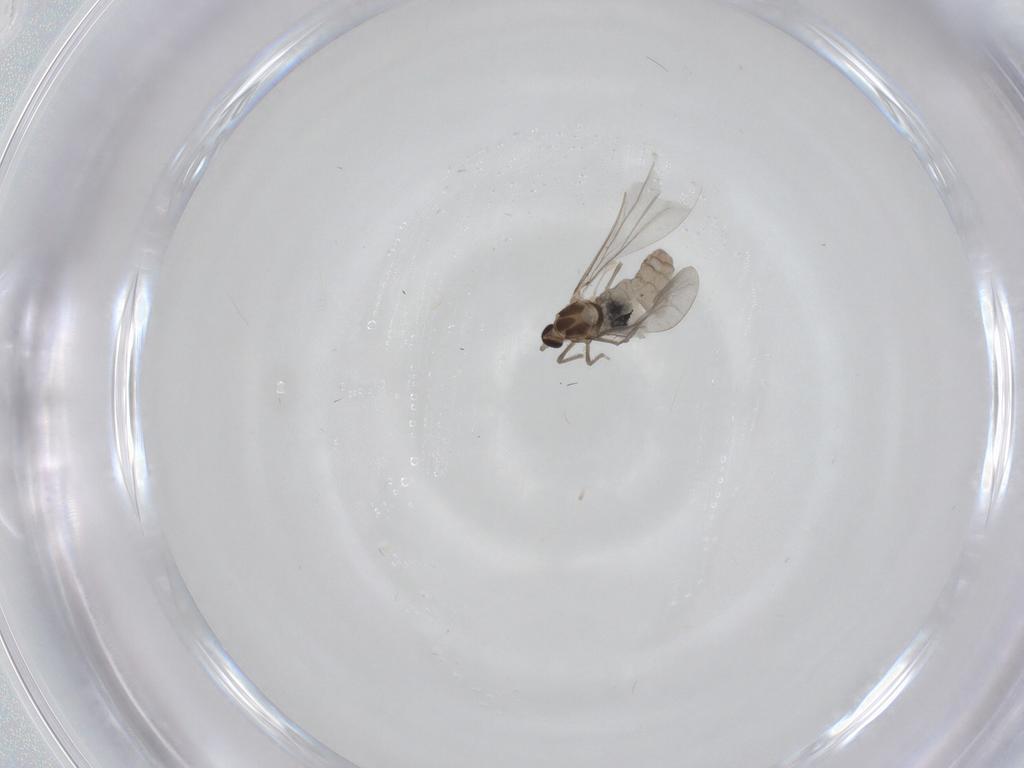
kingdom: Animalia
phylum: Arthropoda
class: Insecta
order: Diptera
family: Cecidomyiidae
